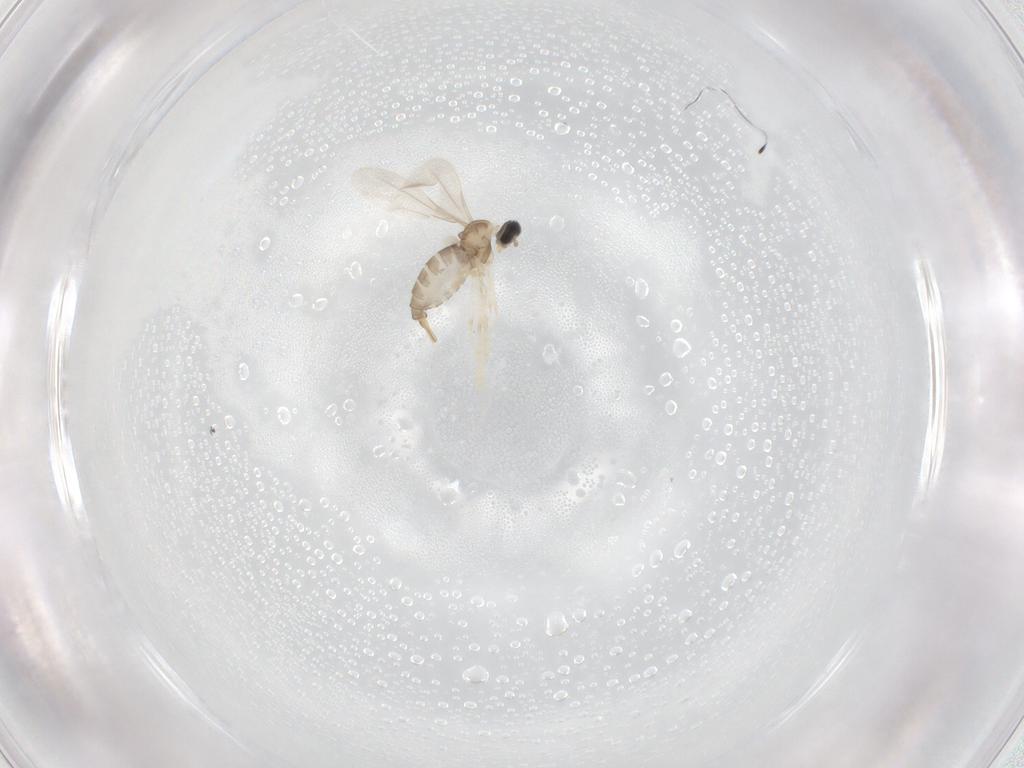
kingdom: Animalia
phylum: Arthropoda
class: Insecta
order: Diptera
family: Cecidomyiidae
